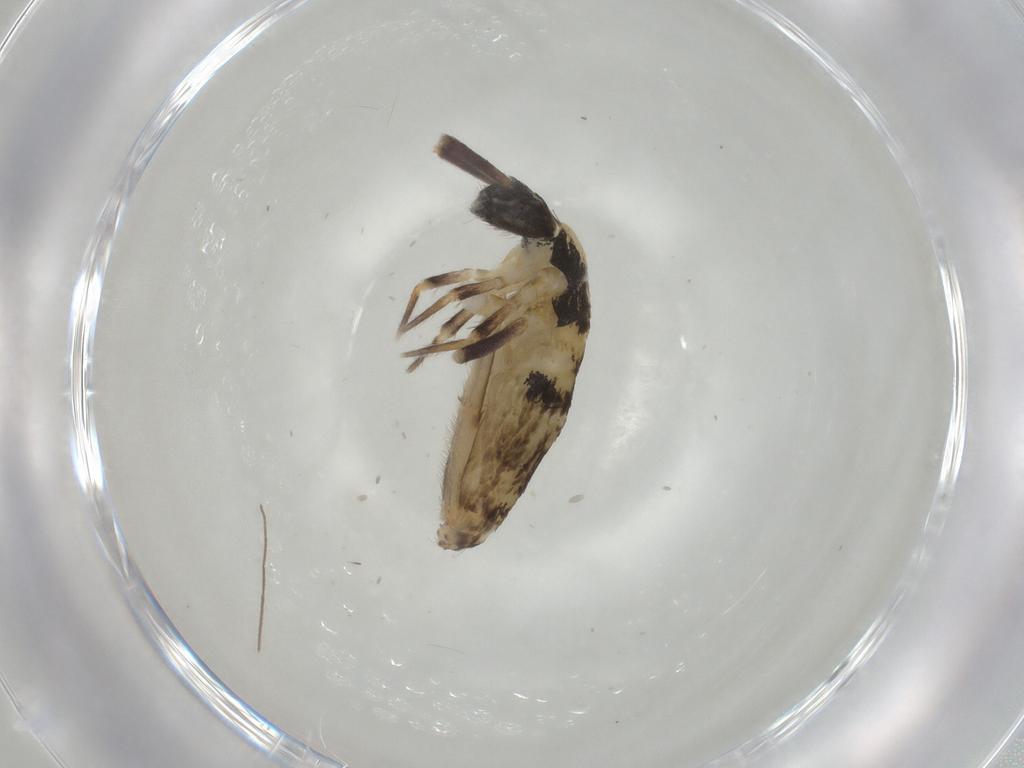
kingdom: Animalia
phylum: Arthropoda
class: Collembola
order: Entomobryomorpha
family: Entomobryidae
